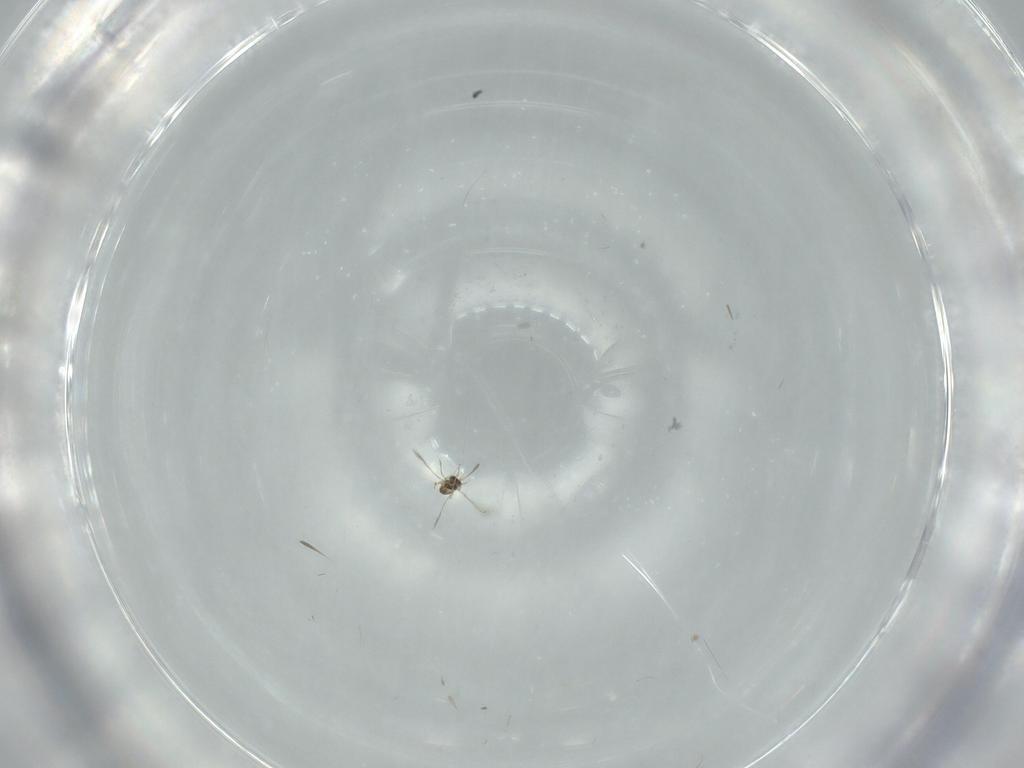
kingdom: Animalia
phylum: Arthropoda
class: Insecta
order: Hymenoptera
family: Mymaridae
